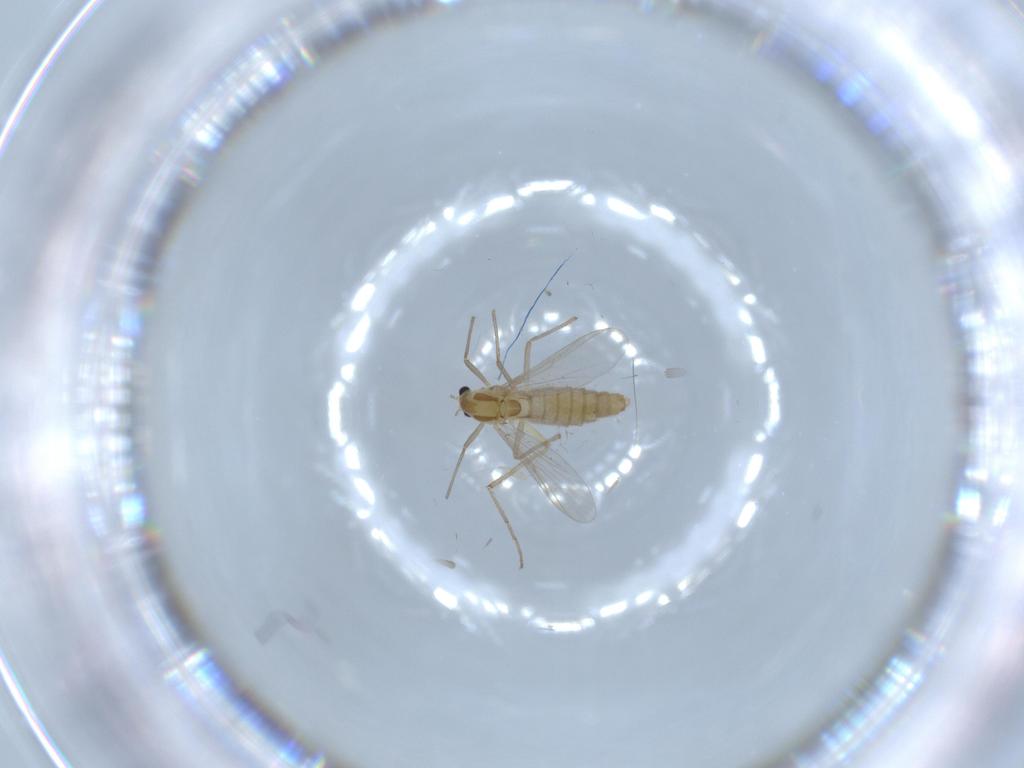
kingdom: Animalia
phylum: Arthropoda
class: Insecta
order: Diptera
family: Chironomidae
